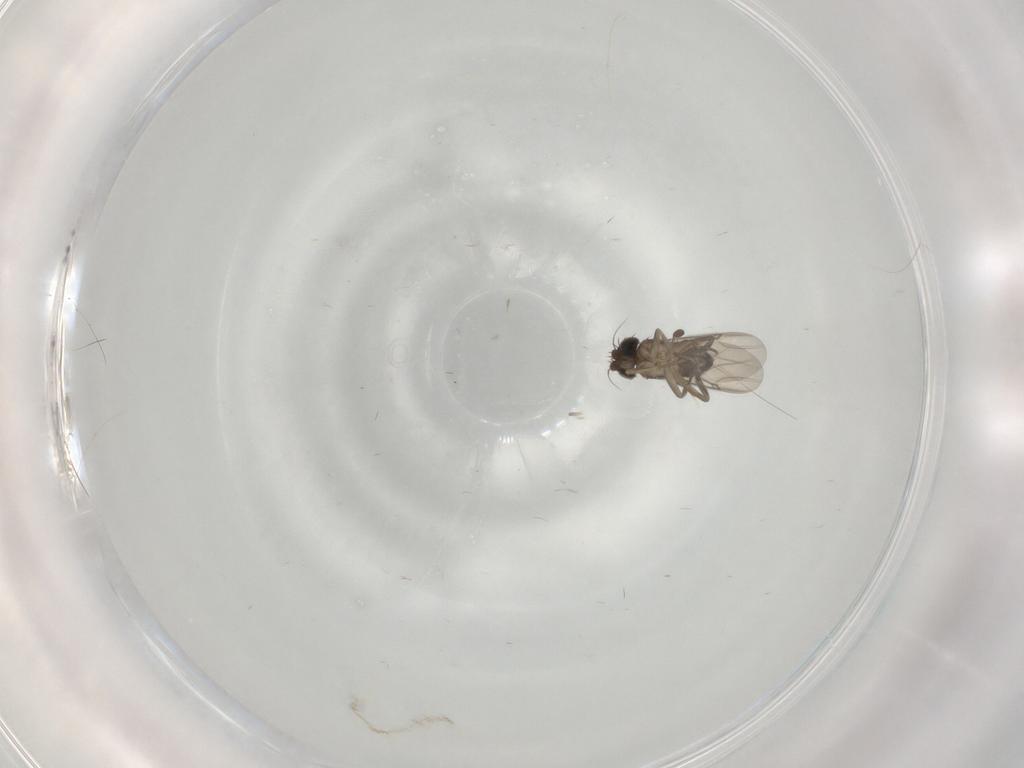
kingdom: Animalia
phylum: Arthropoda
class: Insecta
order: Diptera
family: Phoridae
